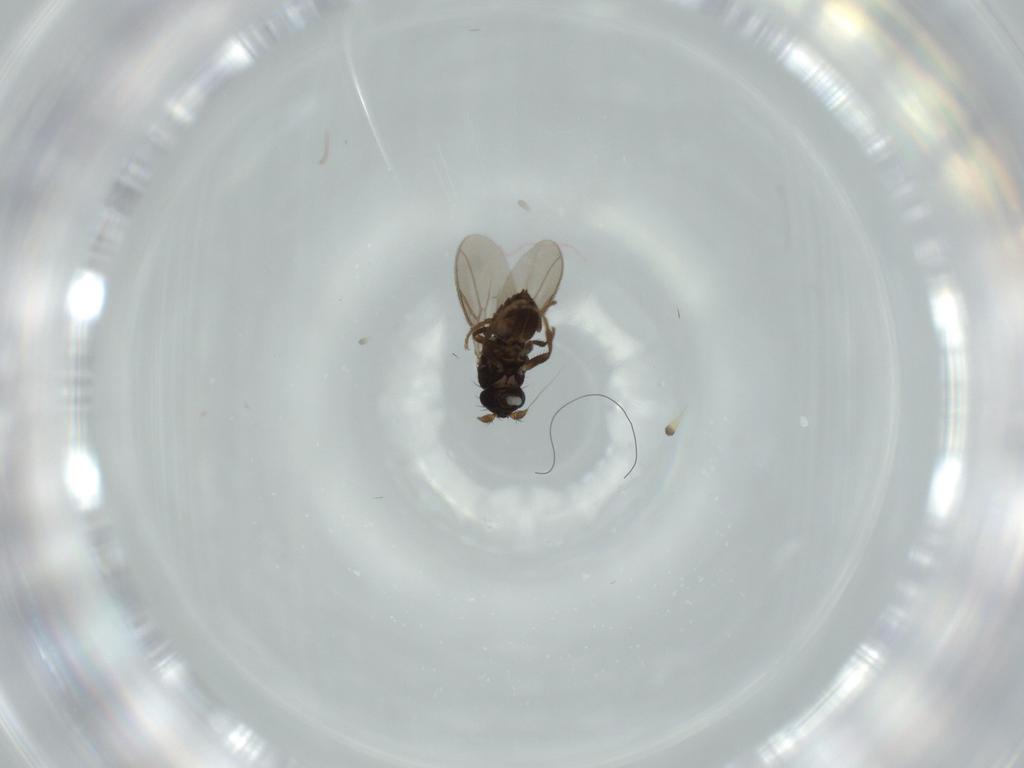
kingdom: Animalia
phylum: Arthropoda
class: Insecta
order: Diptera
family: Sphaeroceridae
